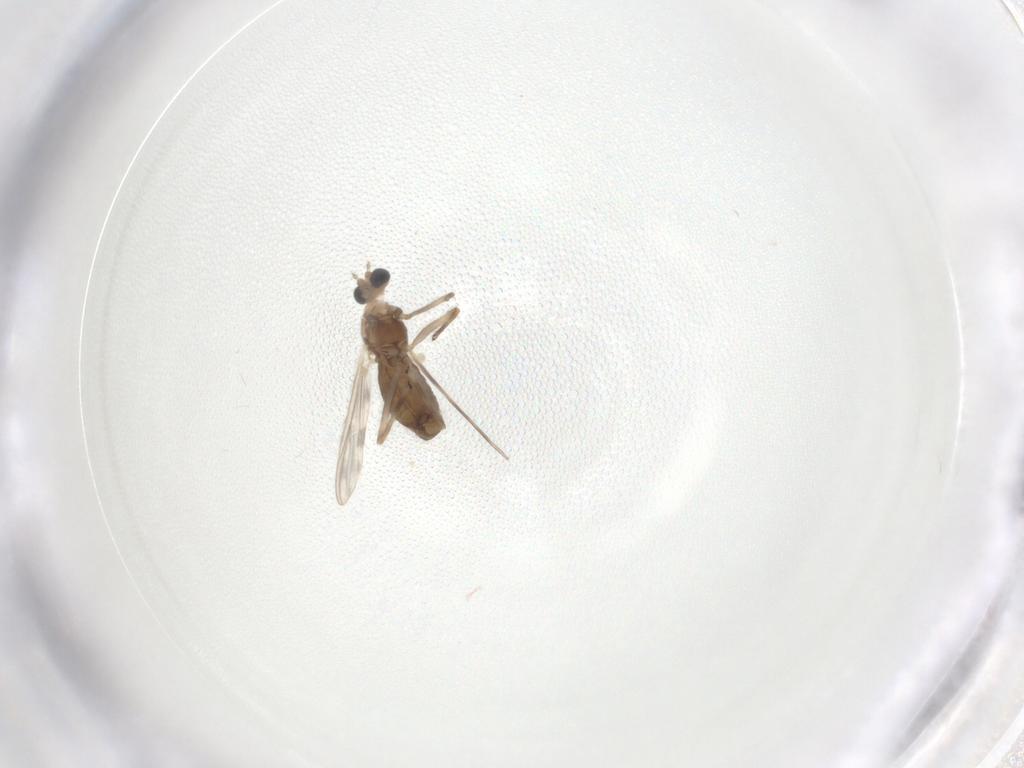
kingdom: Animalia
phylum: Arthropoda
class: Insecta
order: Diptera
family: Chironomidae
